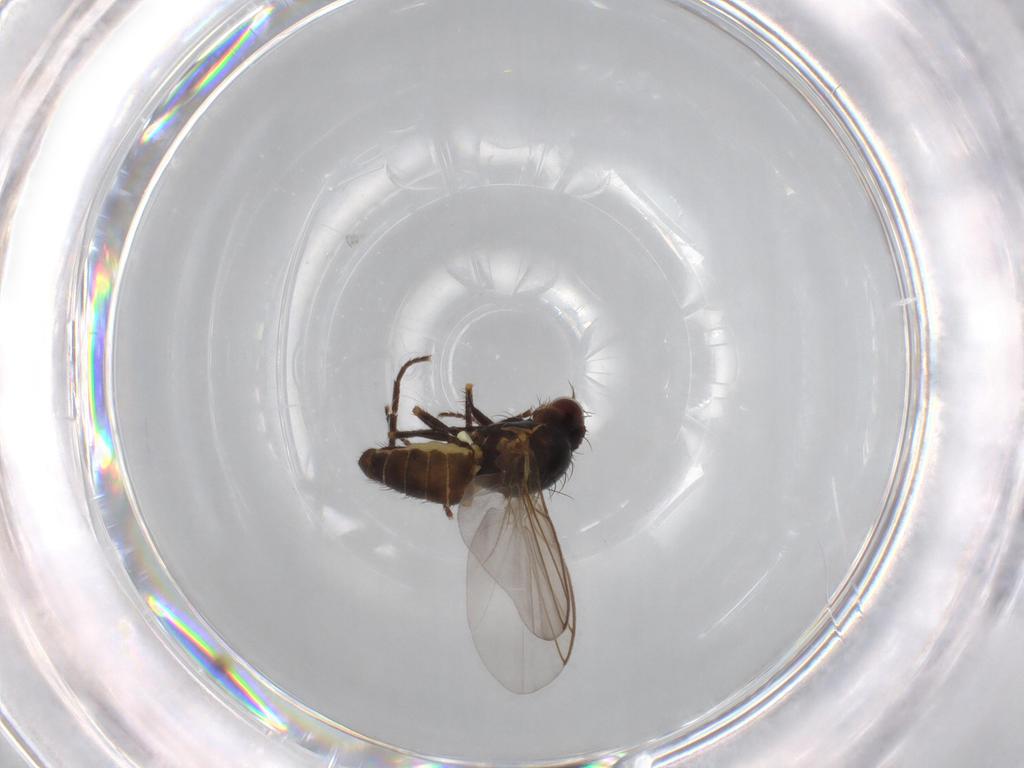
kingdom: Animalia
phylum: Arthropoda
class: Insecta
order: Diptera
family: Agromyzidae
